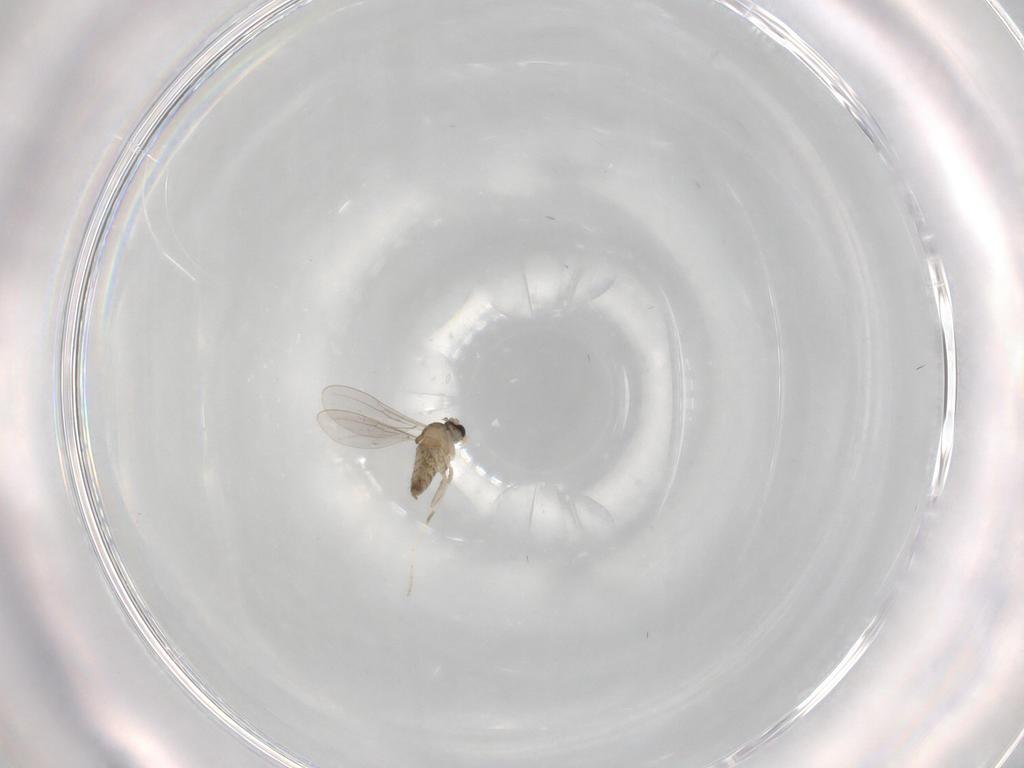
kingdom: Animalia
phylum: Arthropoda
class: Insecta
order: Diptera
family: Cecidomyiidae
